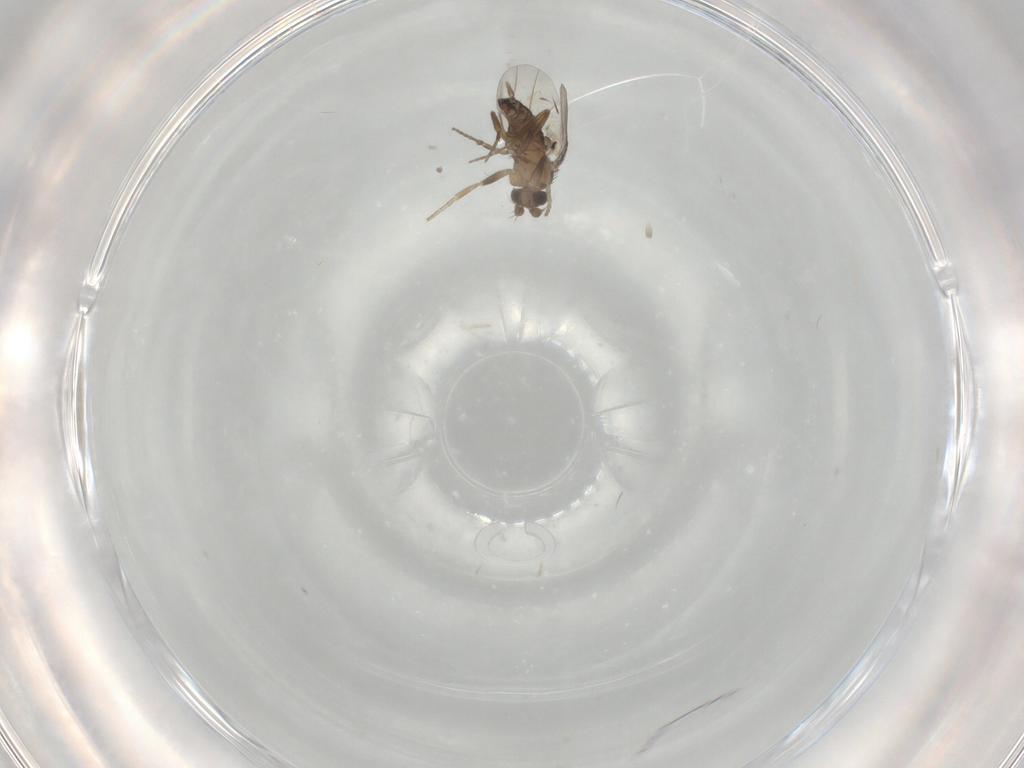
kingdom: Animalia
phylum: Arthropoda
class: Insecta
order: Diptera
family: Phoridae
